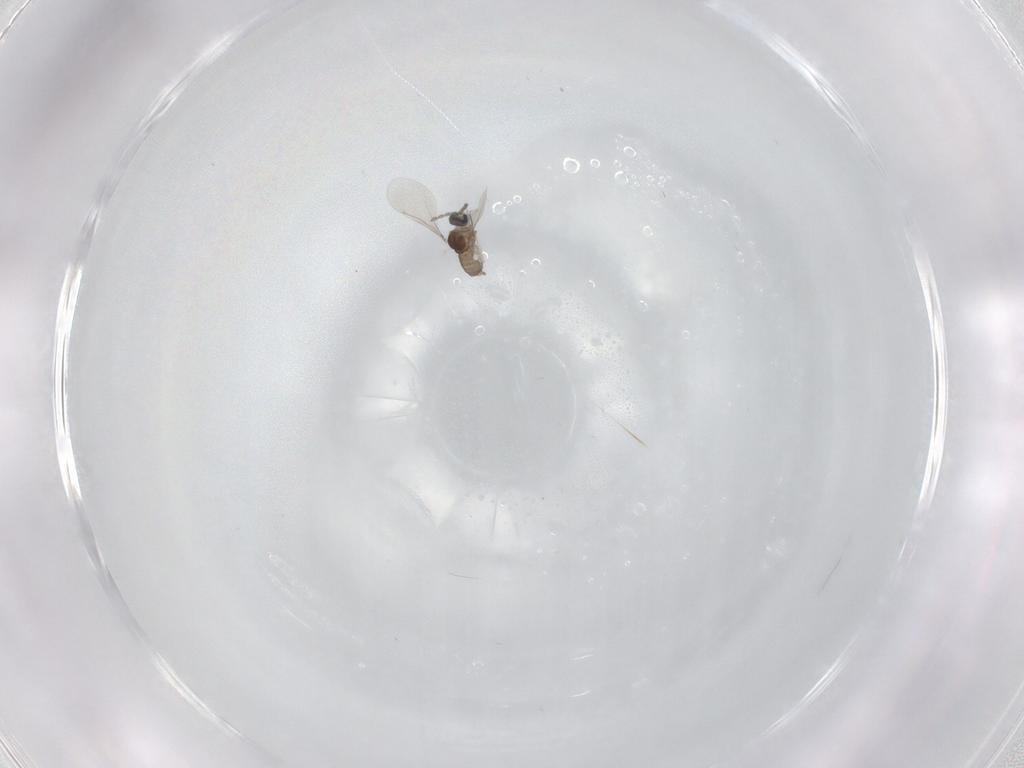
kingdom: Animalia
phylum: Arthropoda
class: Insecta
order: Diptera
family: Cecidomyiidae
